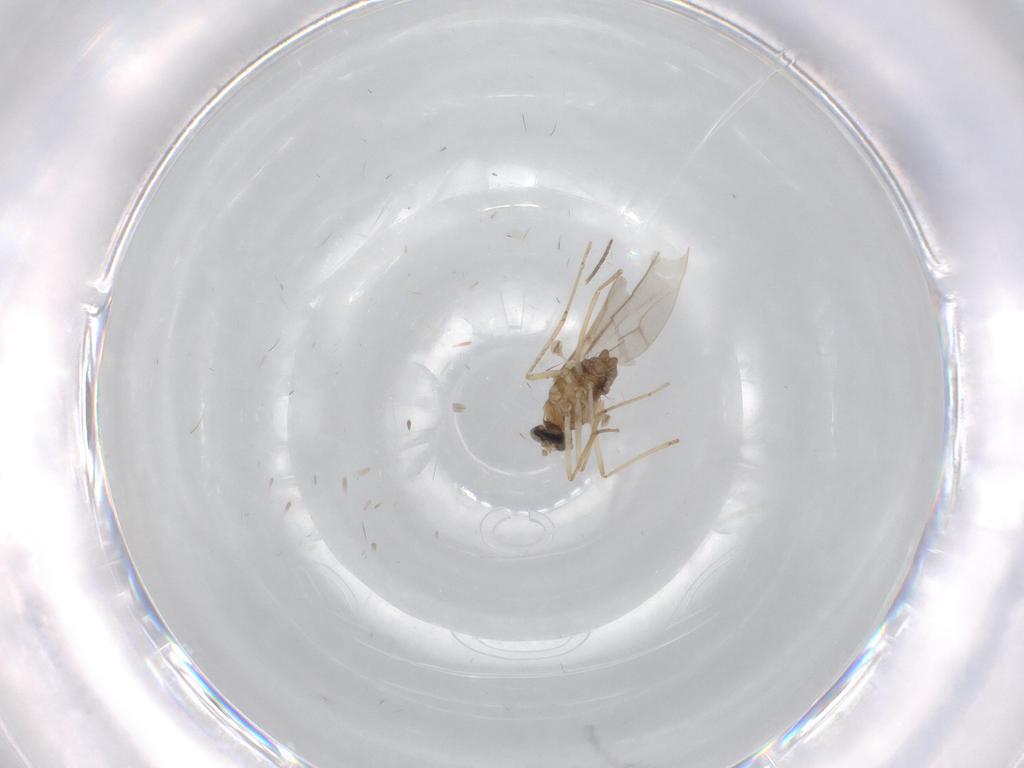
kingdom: Animalia
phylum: Arthropoda
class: Insecta
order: Diptera
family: Cecidomyiidae
